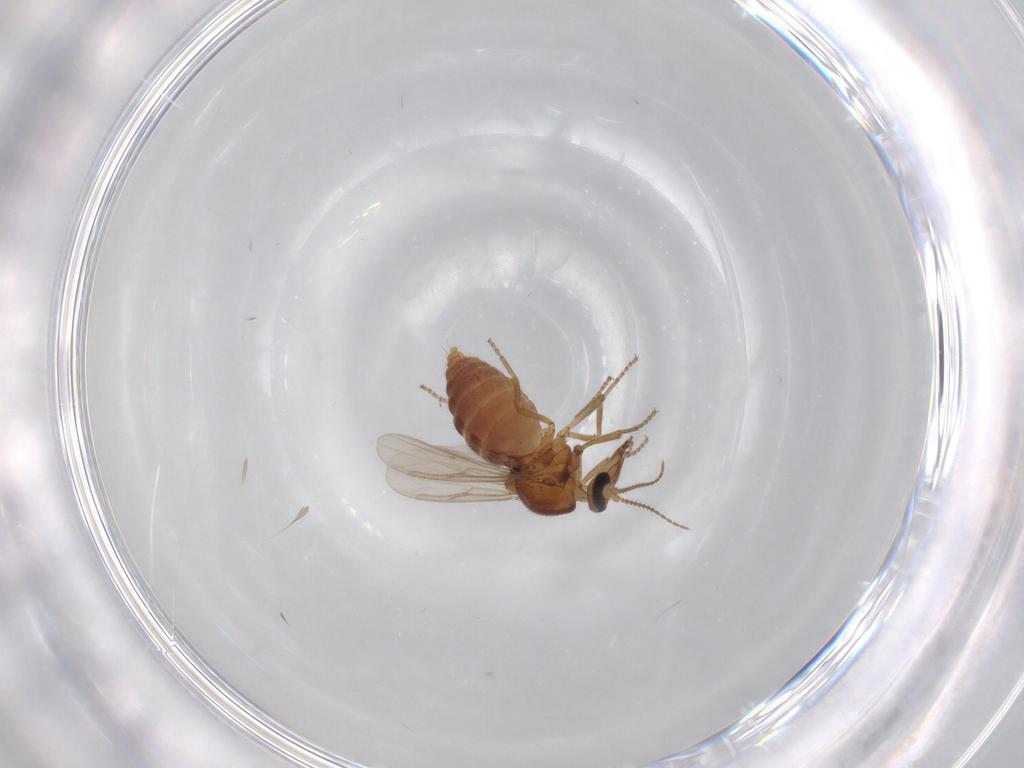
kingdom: Animalia
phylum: Arthropoda
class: Insecta
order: Diptera
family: Ceratopogonidae
